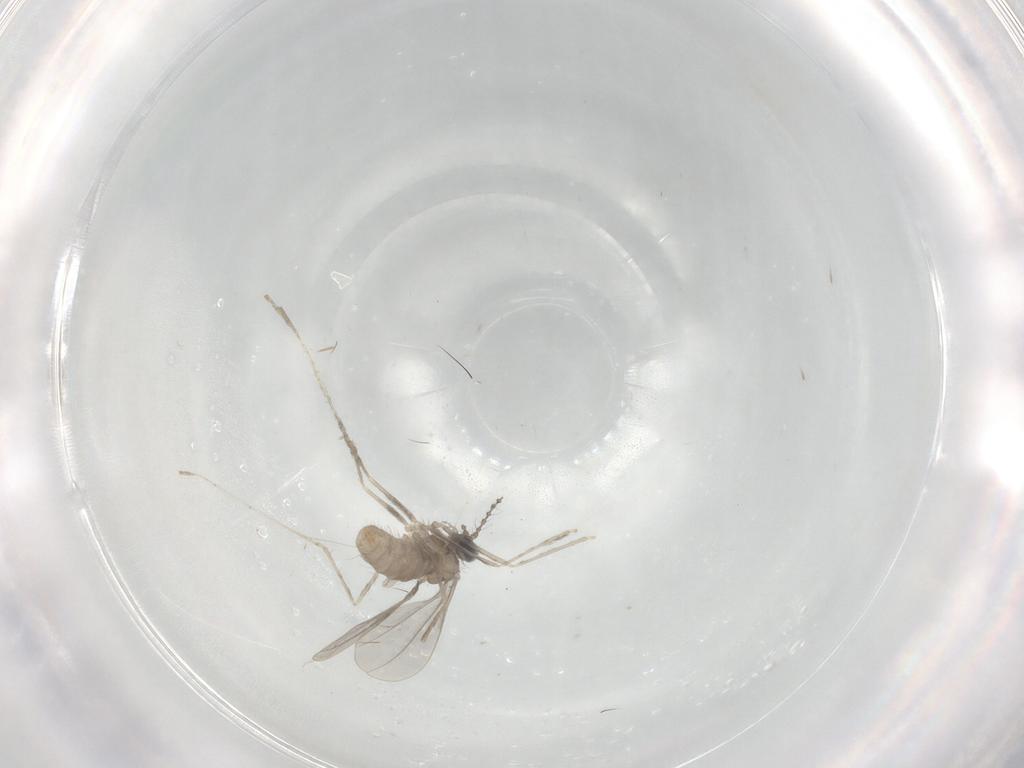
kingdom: Animalia
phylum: Arthropoda
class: Insecta
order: Diptera
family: Cecidomyiidae
